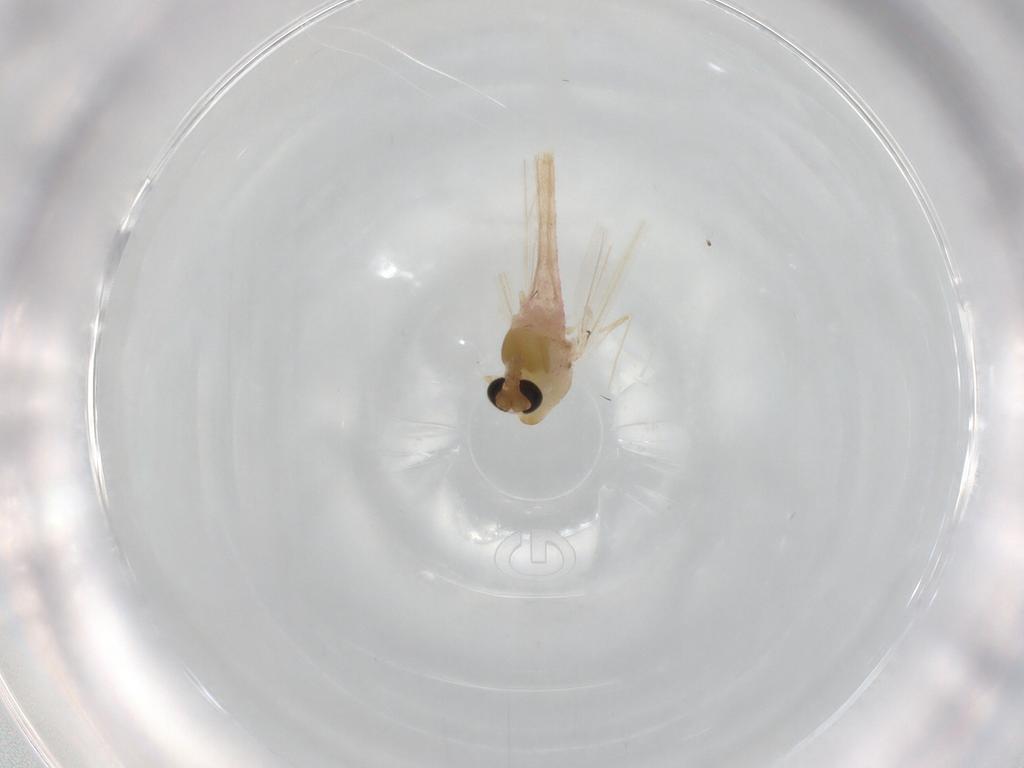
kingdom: Animalia
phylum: Arthropoda
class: Insecta
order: Diptera
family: Chironomidae
